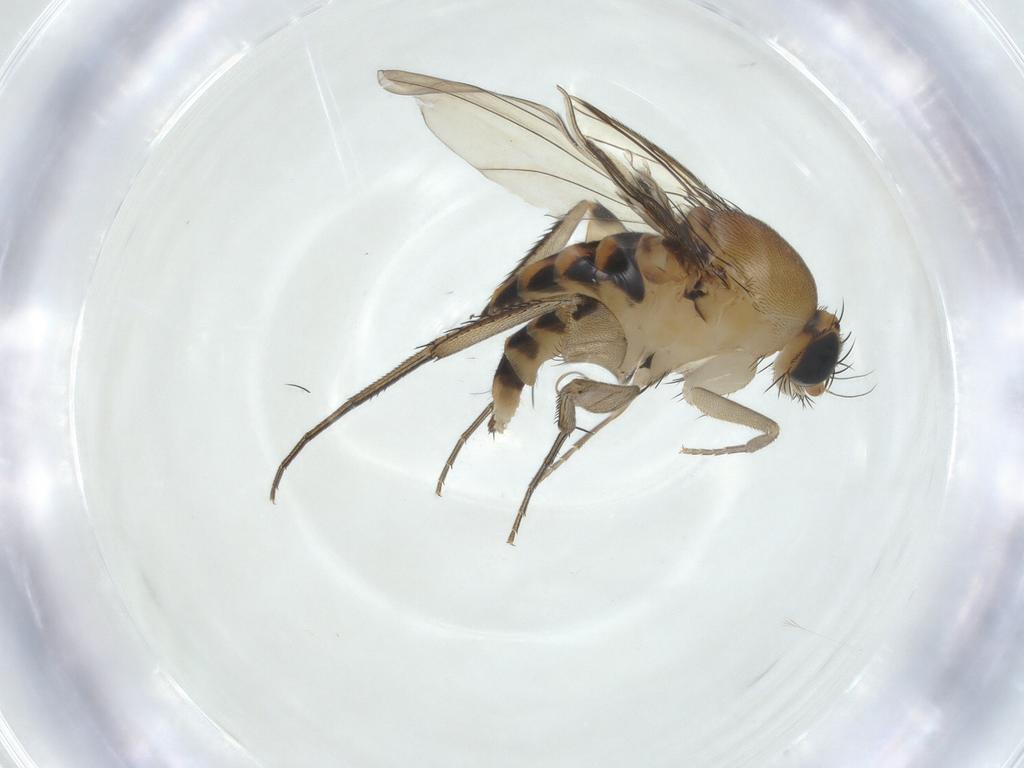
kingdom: Animalia
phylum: Arthropoda
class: Insecta
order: Diptera
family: Phoridae
